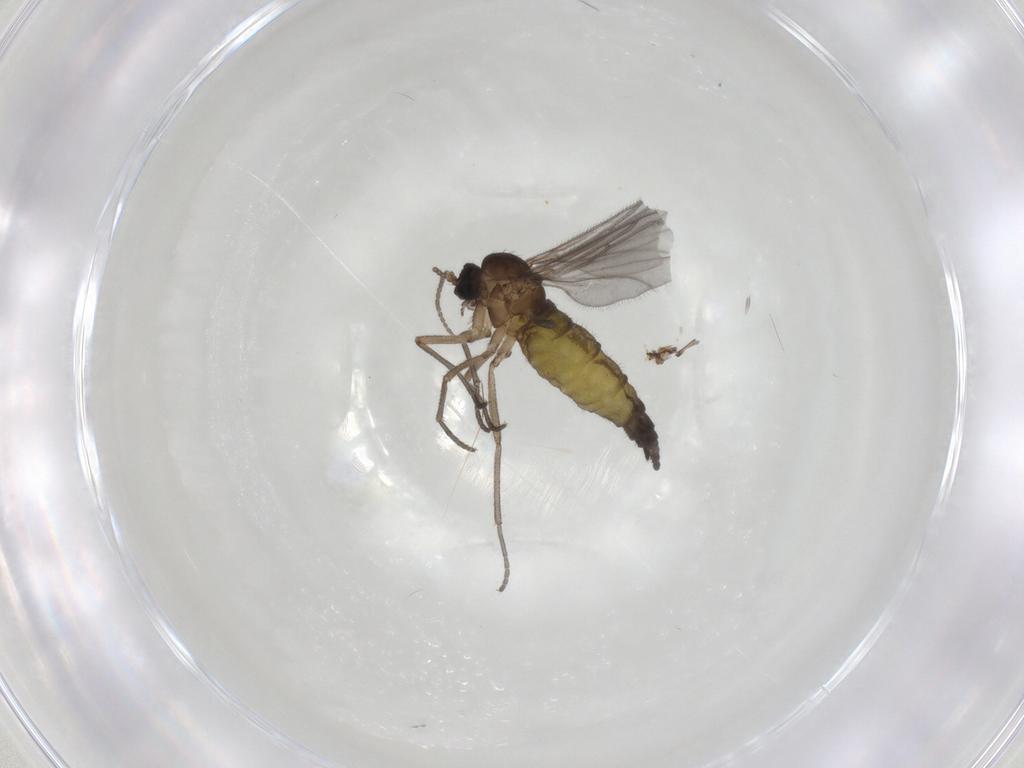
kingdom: Animalia
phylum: Arthropoda
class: Insecta
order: Diptera
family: Sciaridae
